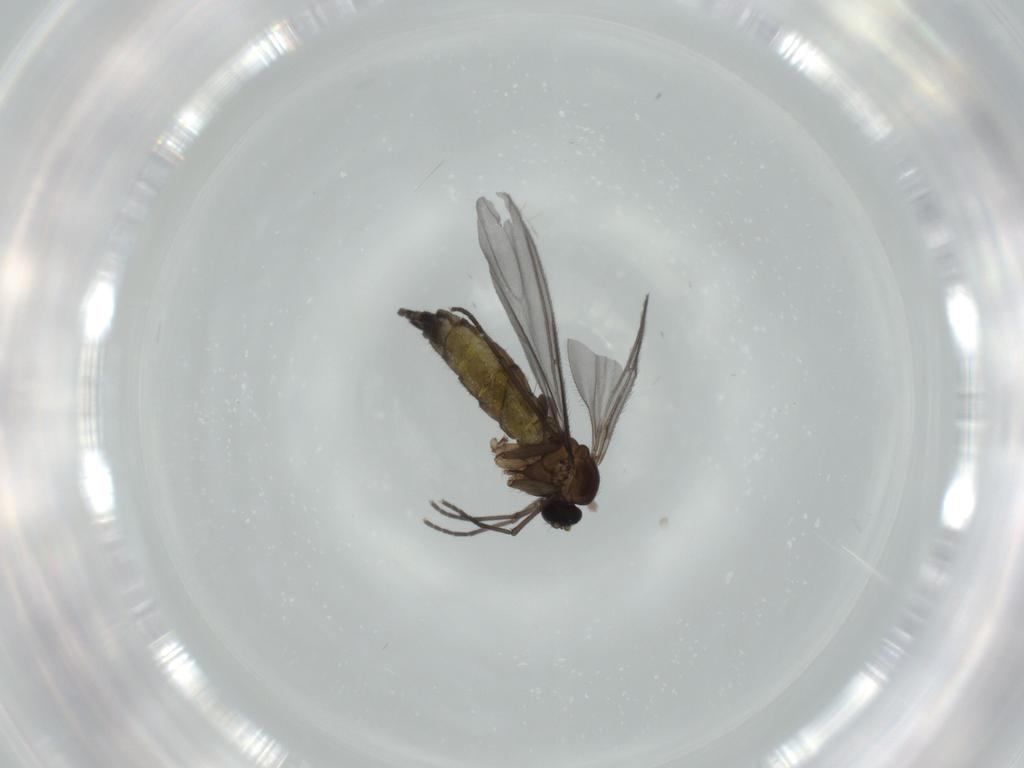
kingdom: Animalia
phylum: Arthropoda
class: Insecta
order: Diptera
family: Sciaridae
